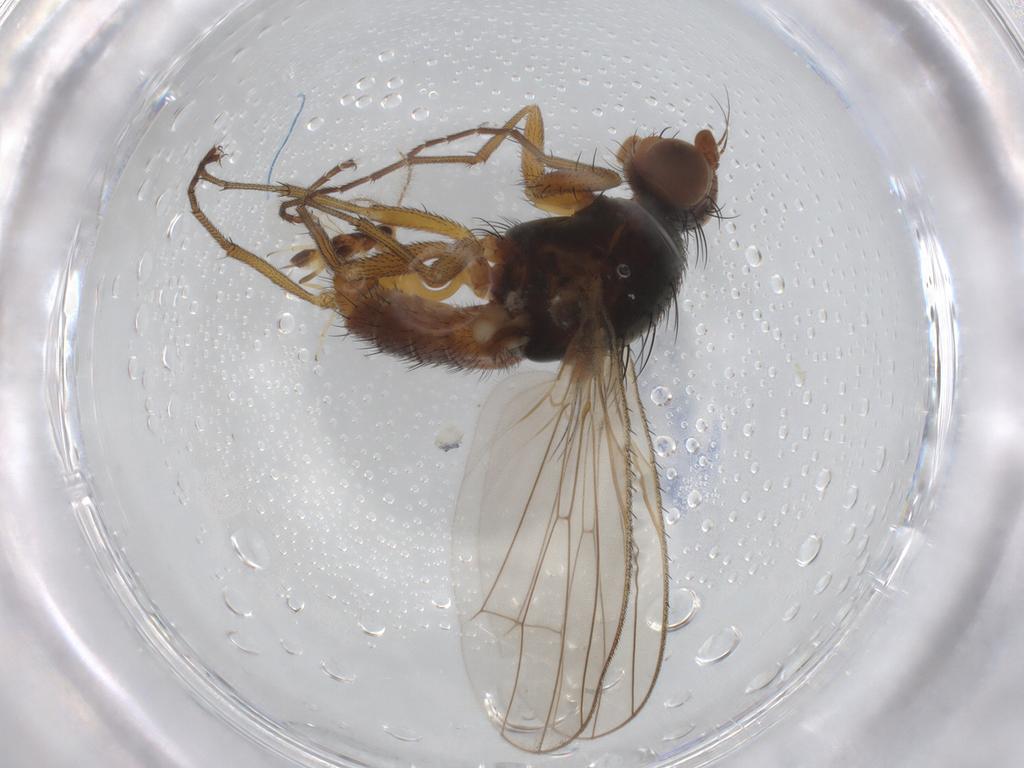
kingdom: Animalia
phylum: Arthropoda
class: Insecta
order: Diptera
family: Heleomyzidae
